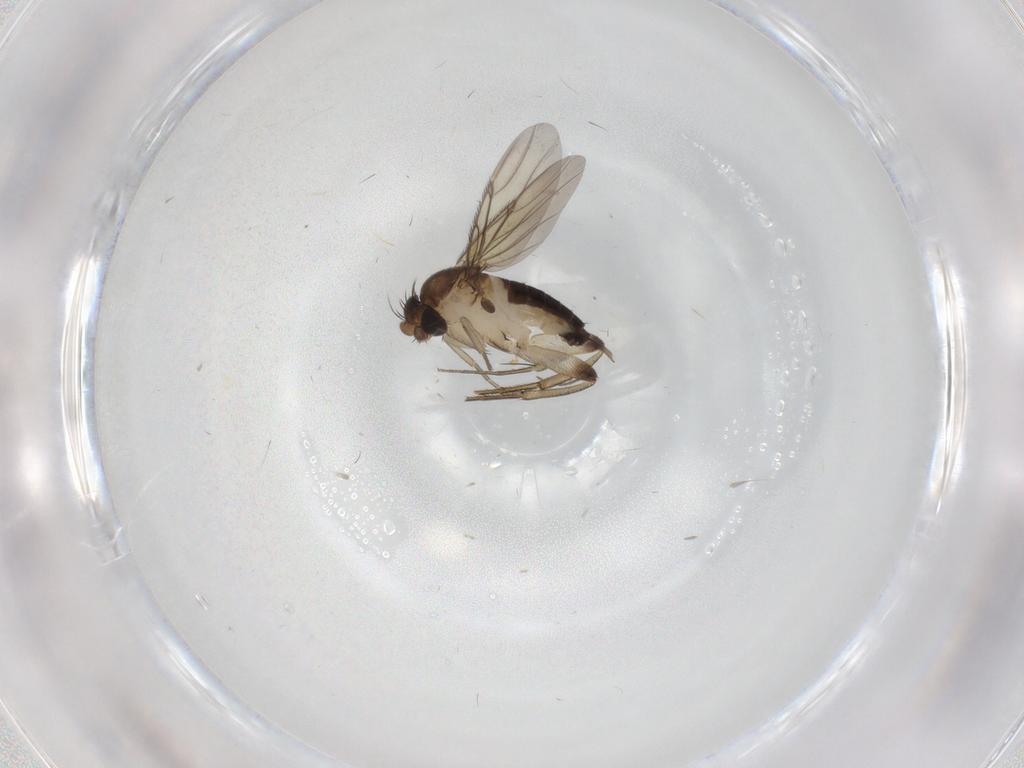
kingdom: Animalia
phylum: Arthropoda
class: Insecta
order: Diptera
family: Phoridae
